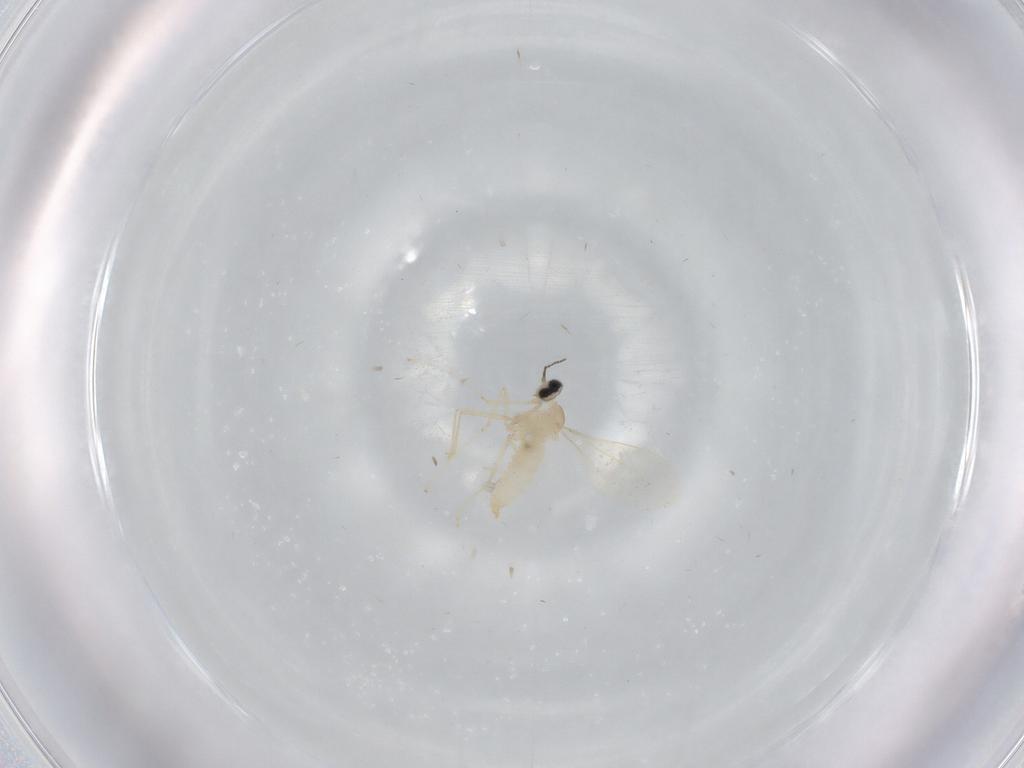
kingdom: Animalia
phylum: Arthropoda
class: Insecta
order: Diptera
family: Cecidomyiidae
